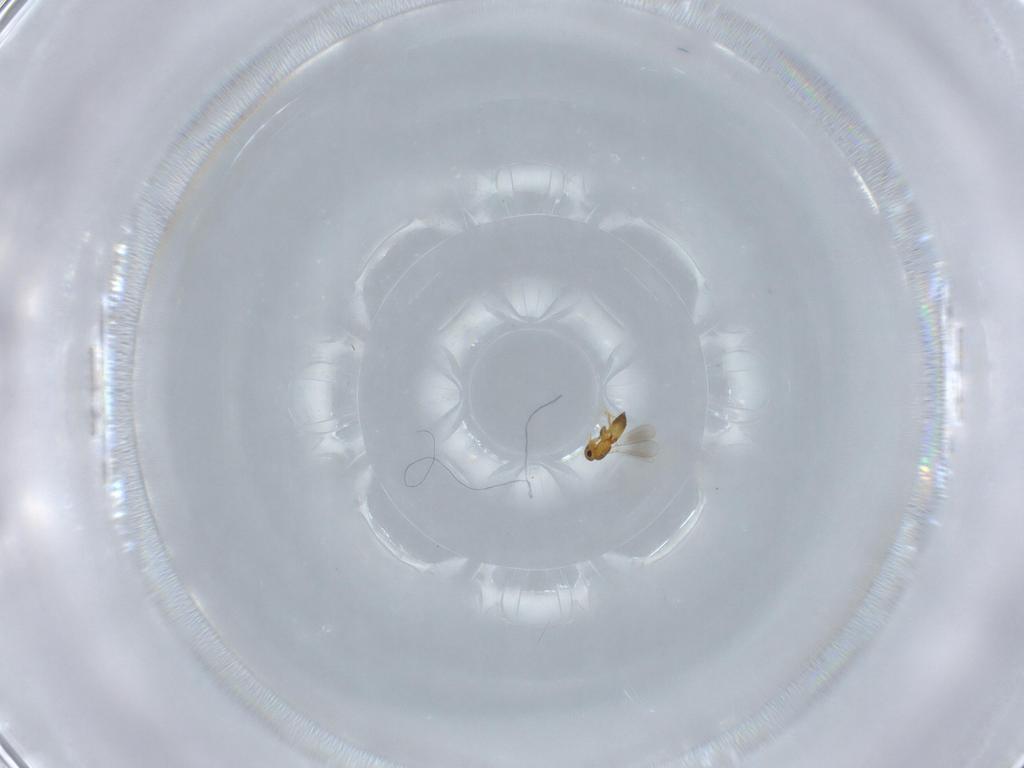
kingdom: Animalia
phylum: Arthropoda
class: Insecta
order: Hymenoptera
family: Platygastridae
